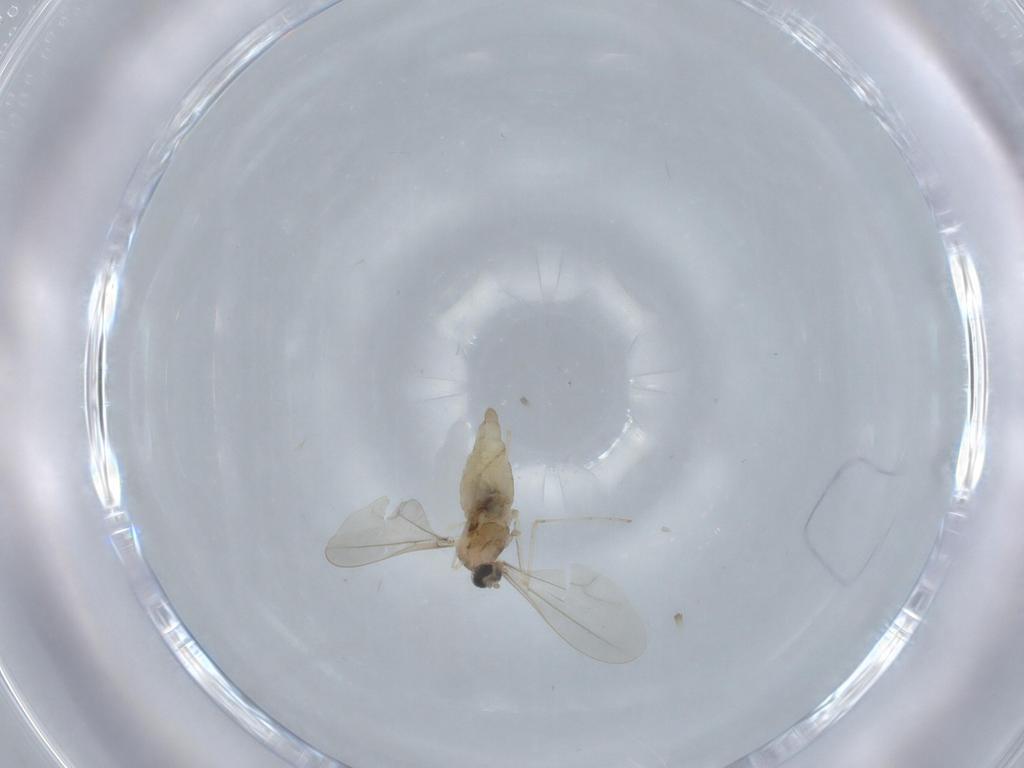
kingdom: Animalia
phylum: Arthropoda
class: Insecta
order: Diptera
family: Cecidomyiidae
